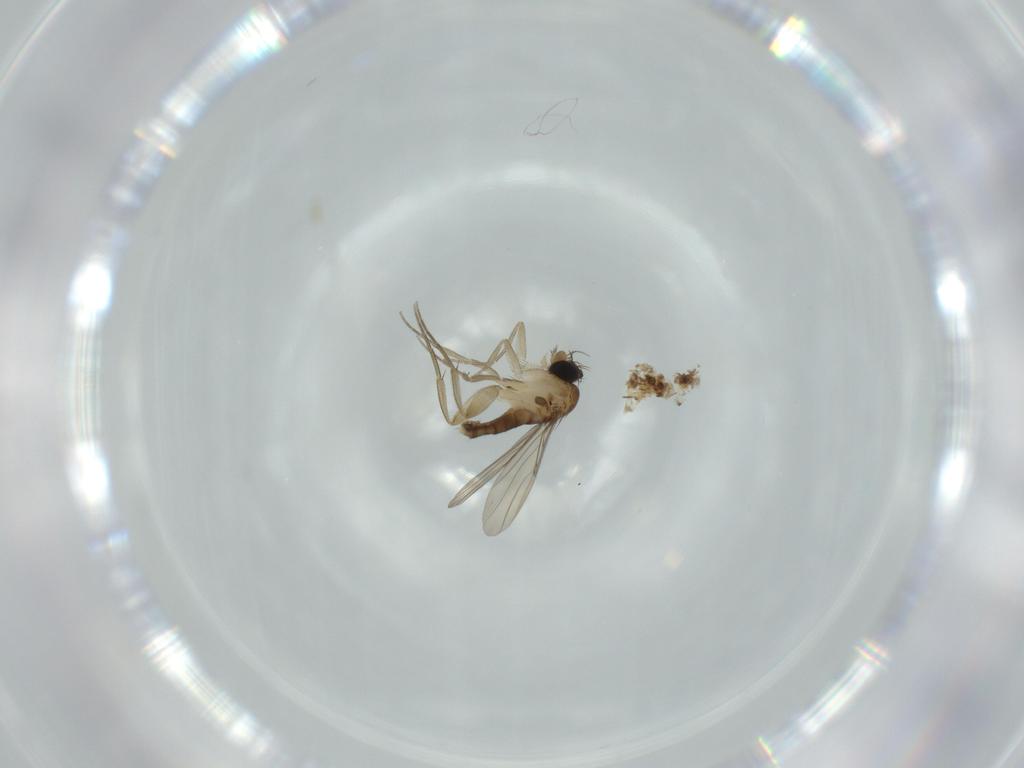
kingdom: Animalia
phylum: Arthropoda
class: Insecta
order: Diptera
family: Phoridae
